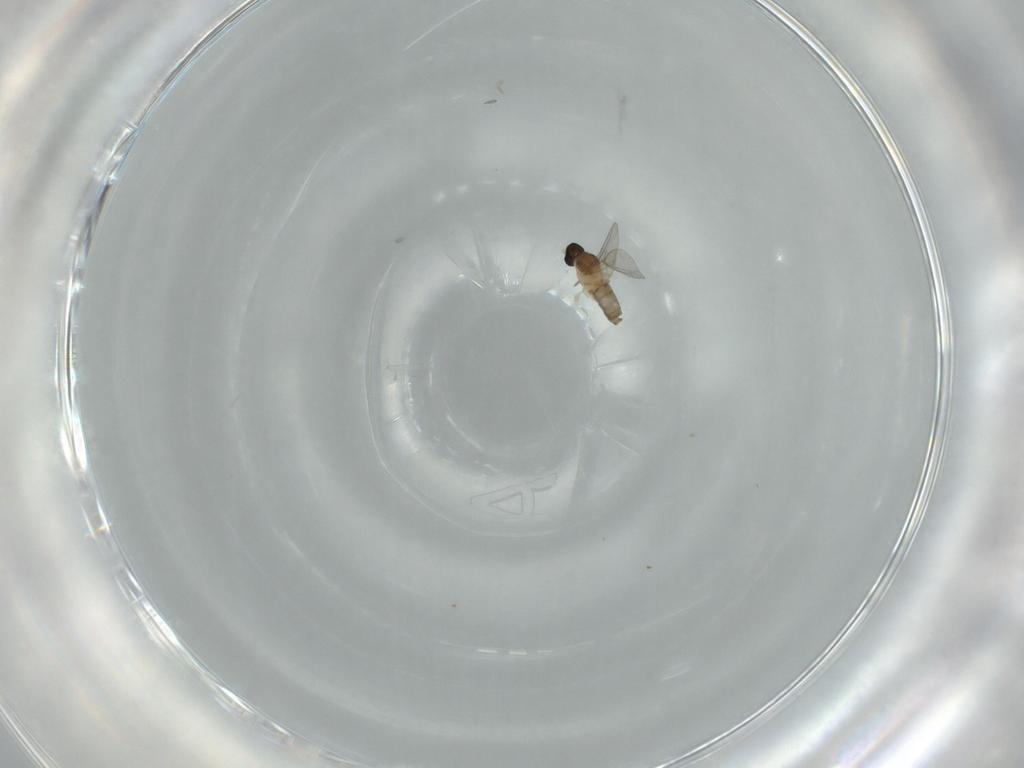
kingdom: Animalia
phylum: Arthropoda
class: Insecta
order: Diptera
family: Cecidomyiidae
